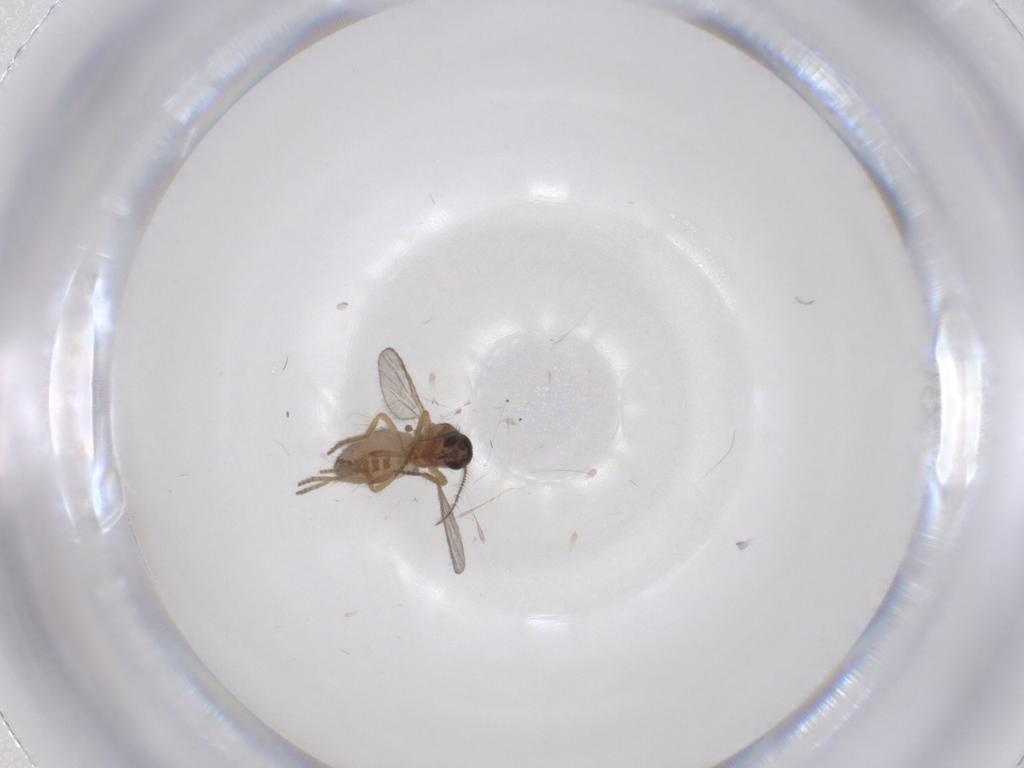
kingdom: Animalia
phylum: Arthropoda
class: Insecta
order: Diptera
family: Ceratopogonidae
